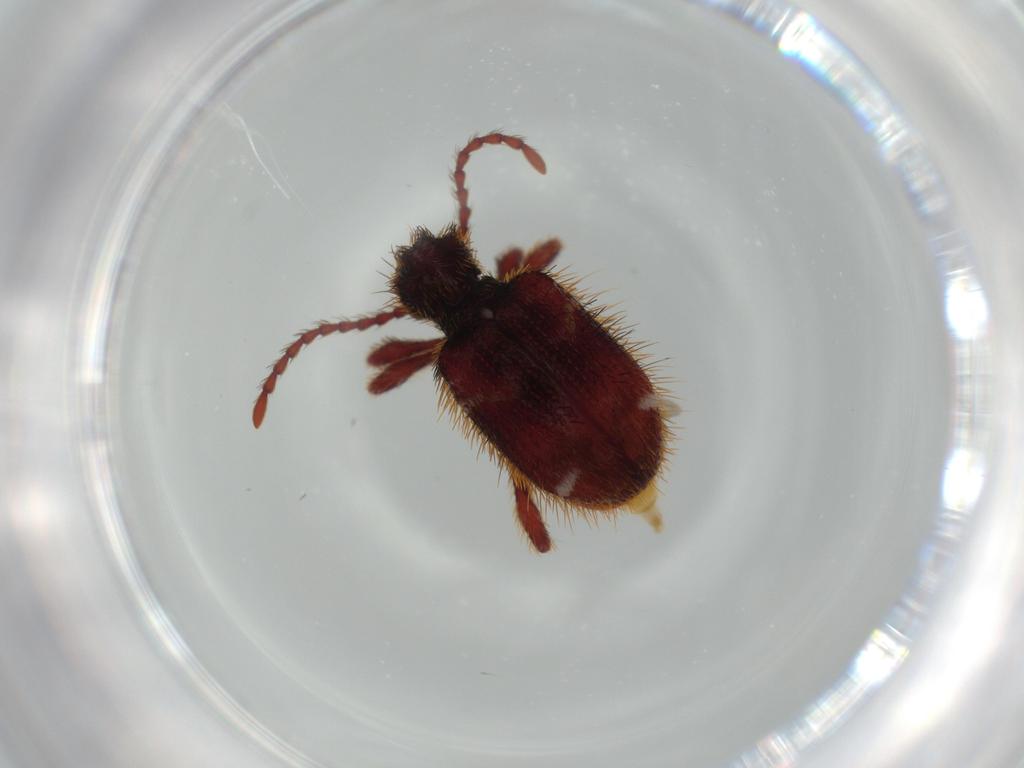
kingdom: Animalia
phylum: Arthropoda
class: Insecta
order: Coleoptera
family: Ptinidae
